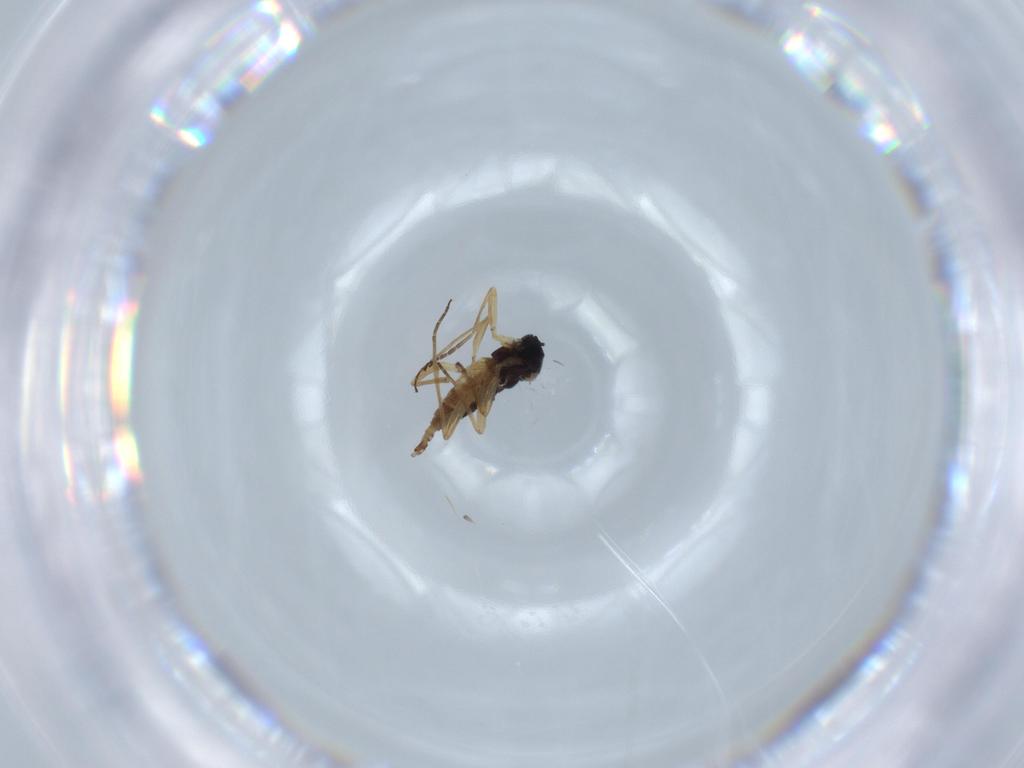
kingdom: Animalia
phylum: Arthropoda
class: Insecta
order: Diptera
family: Sciaridae
